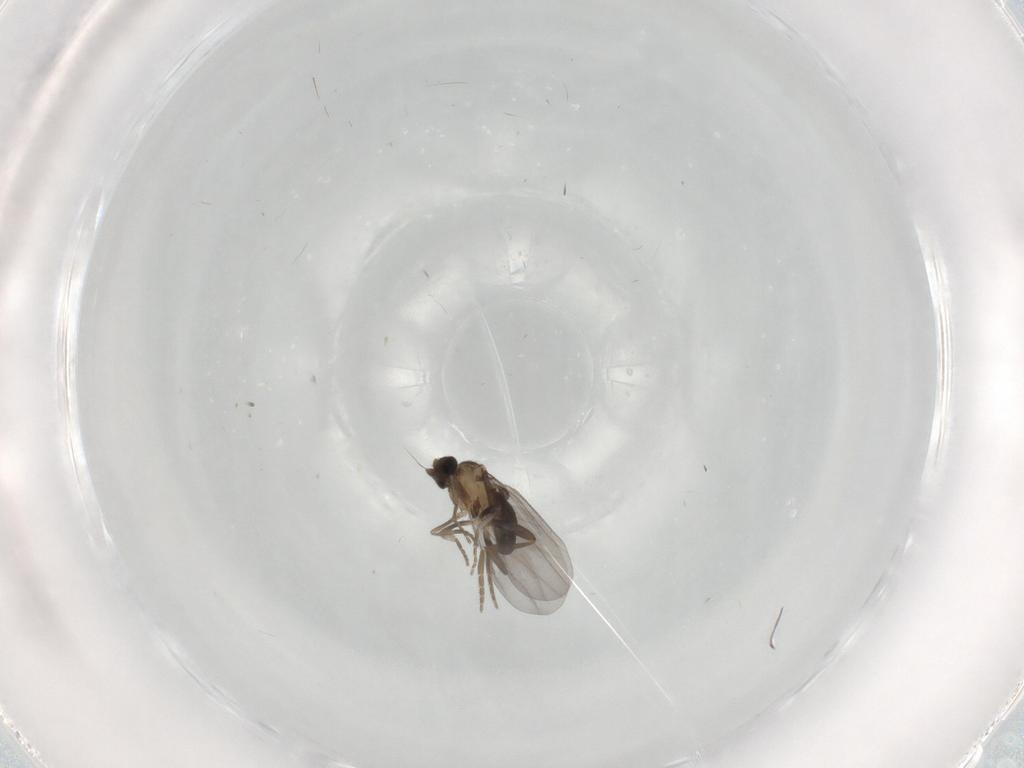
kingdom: Animalia
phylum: Arthropoda
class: Insecta
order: Diptera
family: Phoridae
